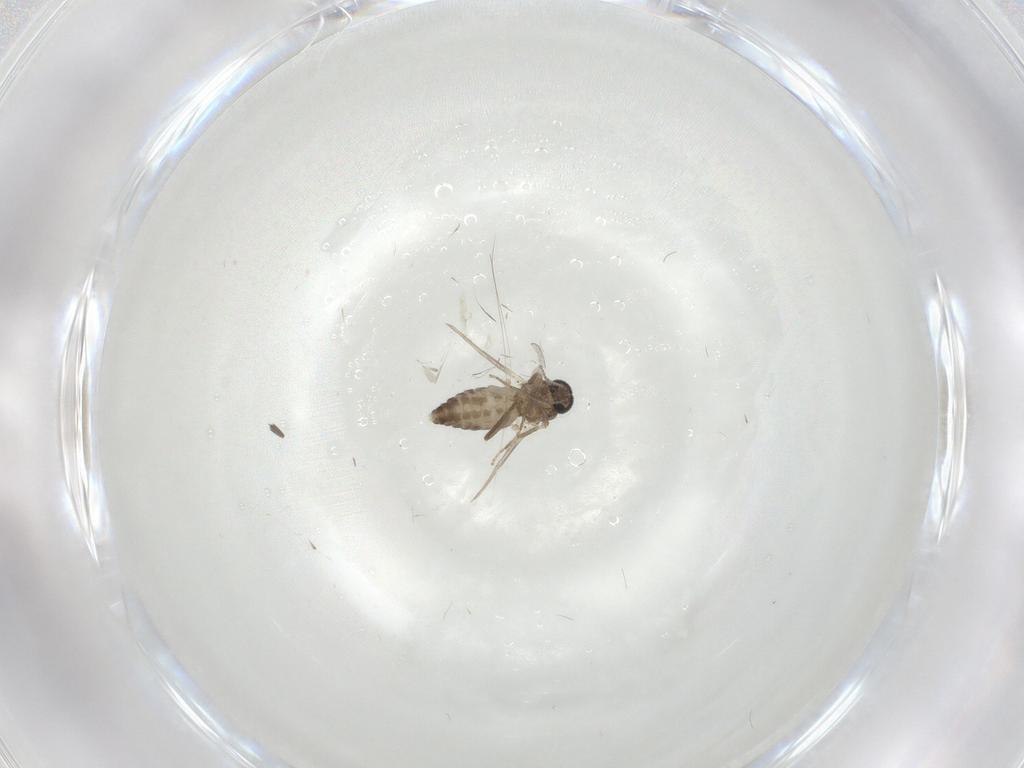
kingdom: Animalia
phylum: Arthropoda
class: Insecta
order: Diptera
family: Ceratopogonidae
